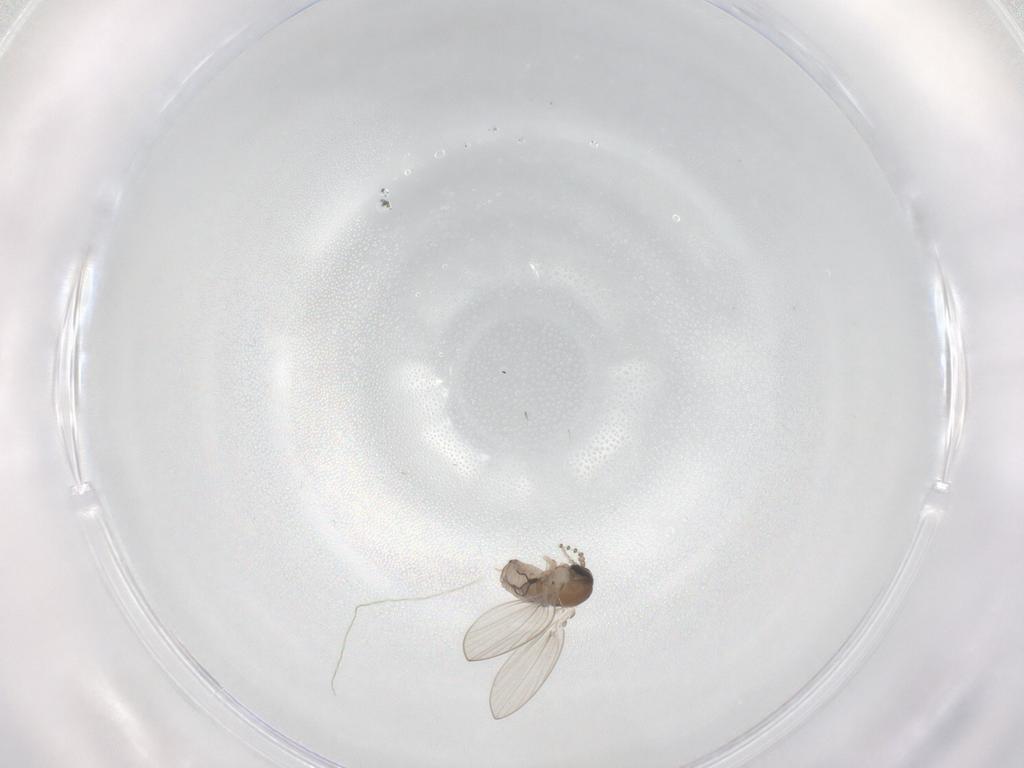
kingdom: Animalia
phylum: Arthropoda
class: Insecta
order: Diptera
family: Psychodidae
